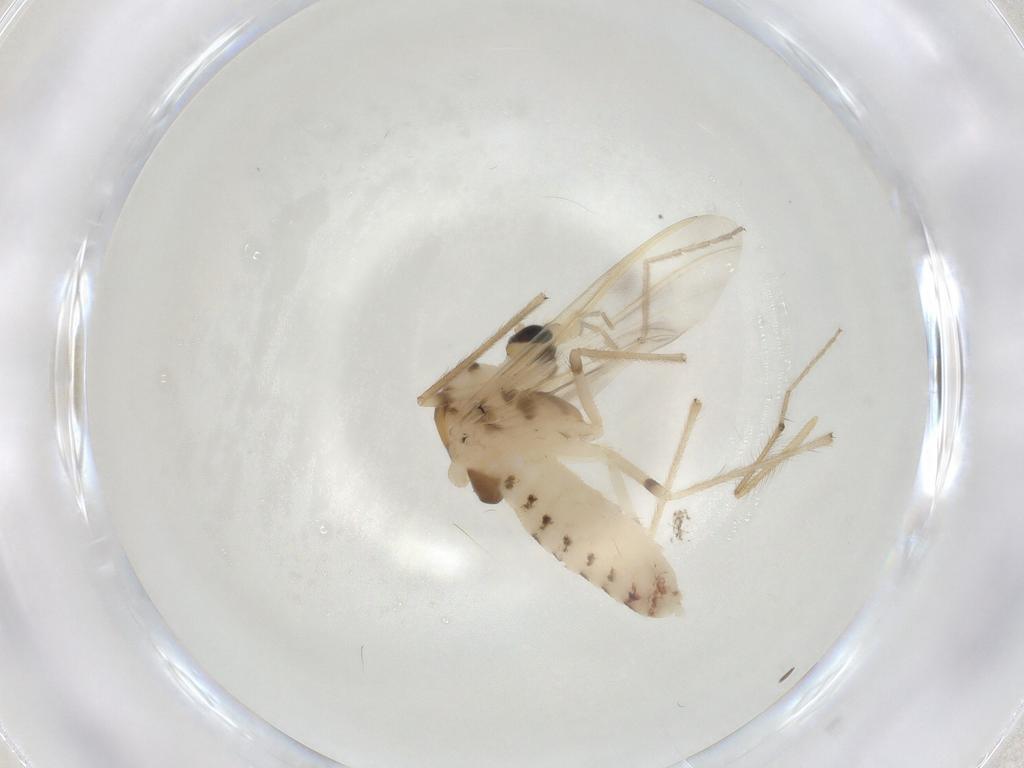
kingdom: Animalia
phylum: Arthropoda
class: Insecta
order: Diptera
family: Chironomidae
